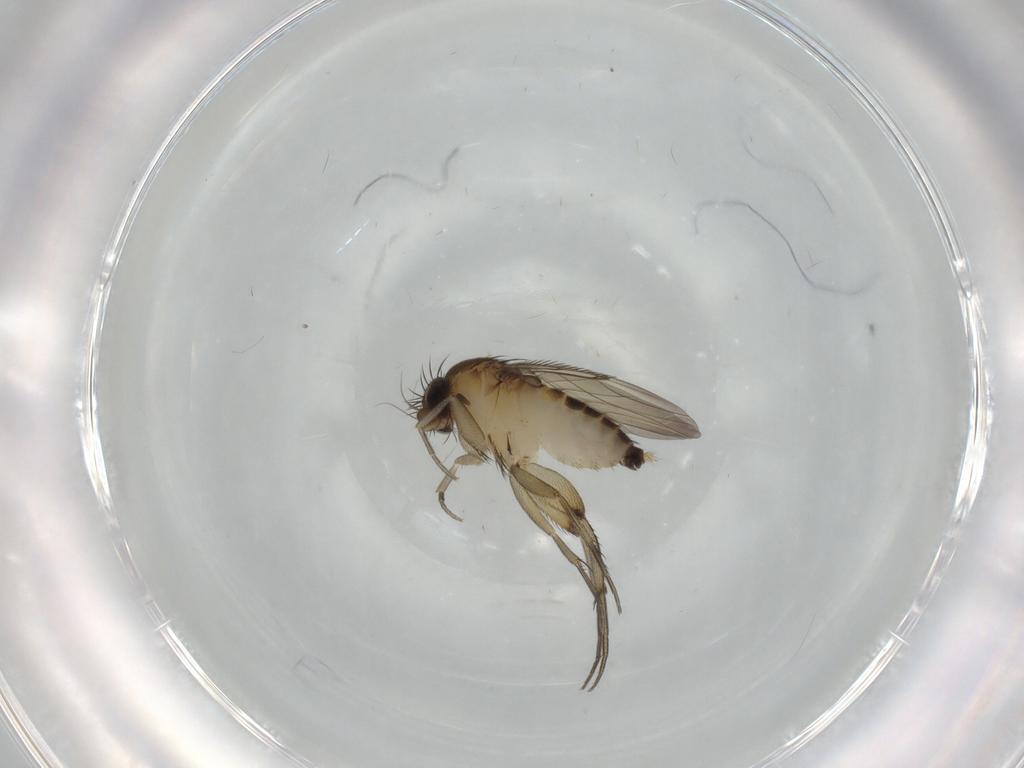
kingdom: Animalia
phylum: Arthropoda
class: Insecta
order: Diptera
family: Phoridae
